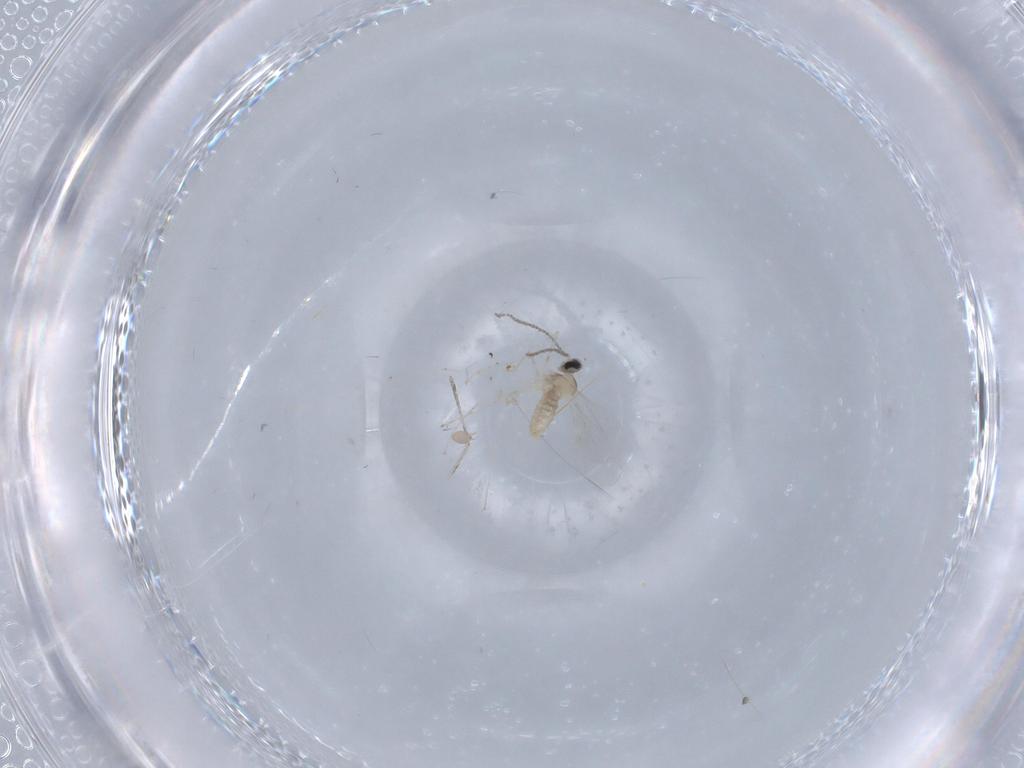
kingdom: Animalia
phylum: Arthropoda
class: Insecta
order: Diptera
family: Cecidomyiidae
